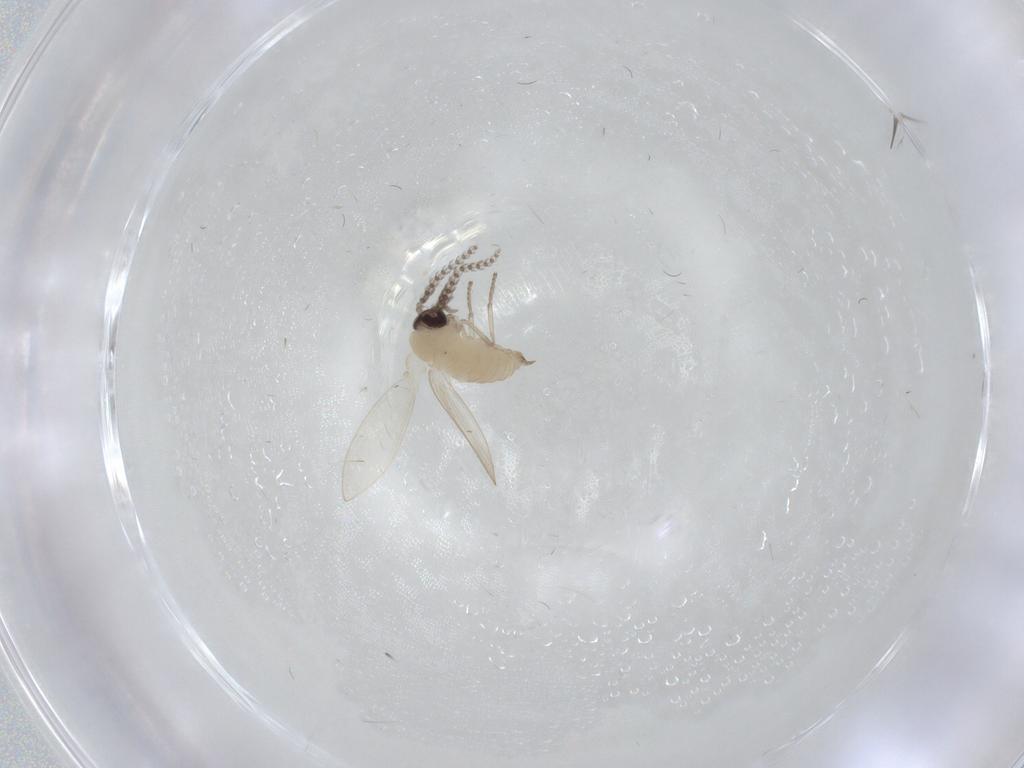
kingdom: Animalia
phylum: Arthropoda
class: Insecta
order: Diptera
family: Psychodidae
